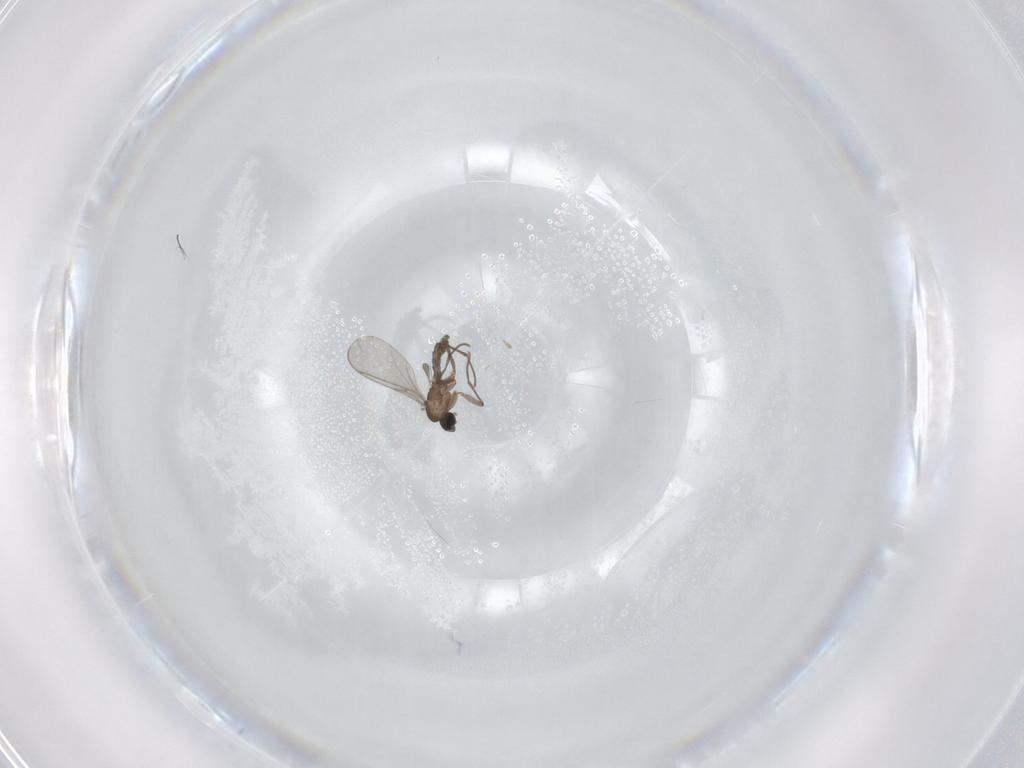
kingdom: Animalia
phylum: Arthropoda
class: Insecta
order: Diptera
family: Sciaridae
